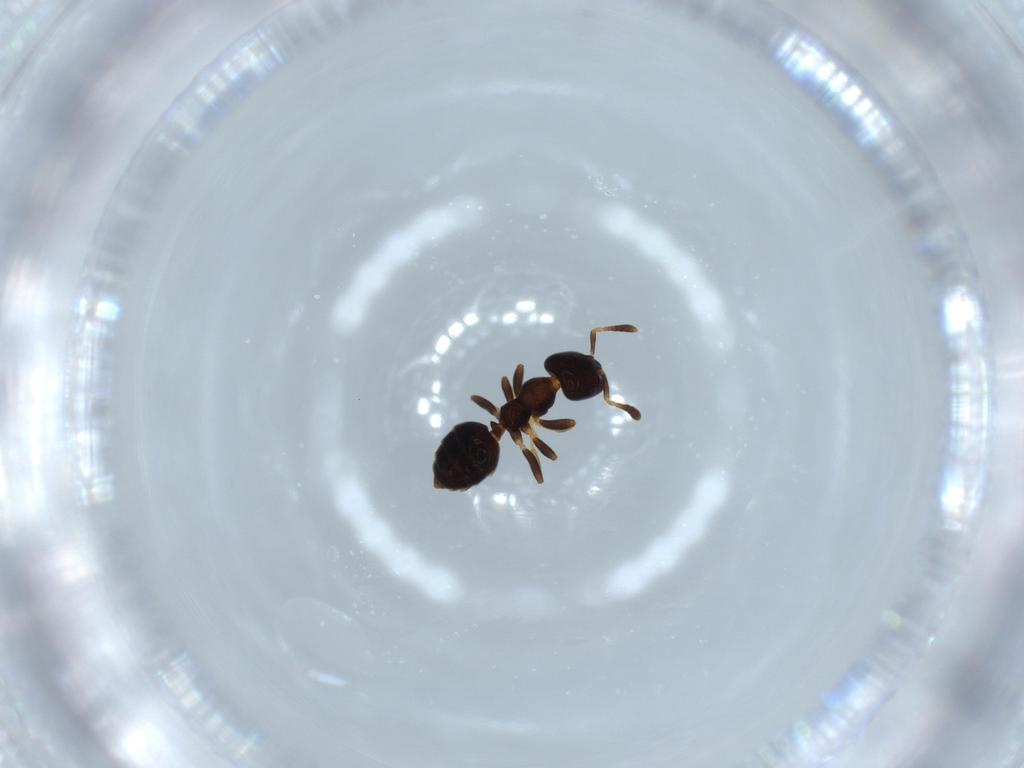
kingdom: Animalia
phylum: Arthropoda
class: Insecta
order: Hymenoptera
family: Formicidae
